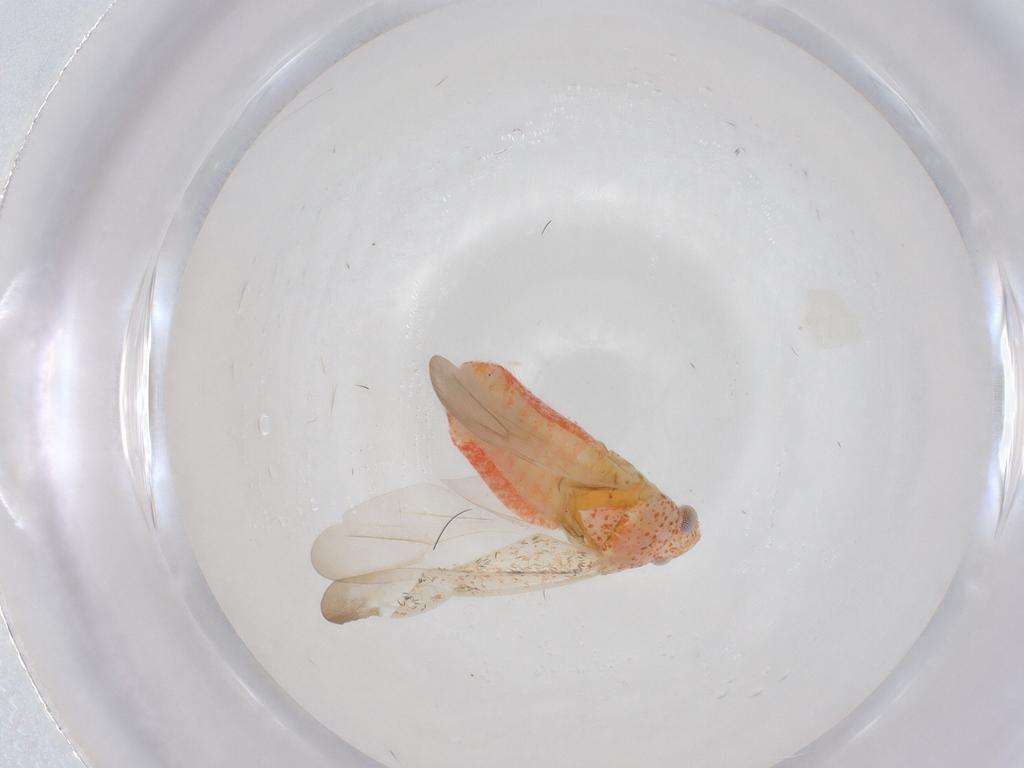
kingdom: Animalia
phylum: Arthropoda
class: Insecta
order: Hemiptera
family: Miridae
